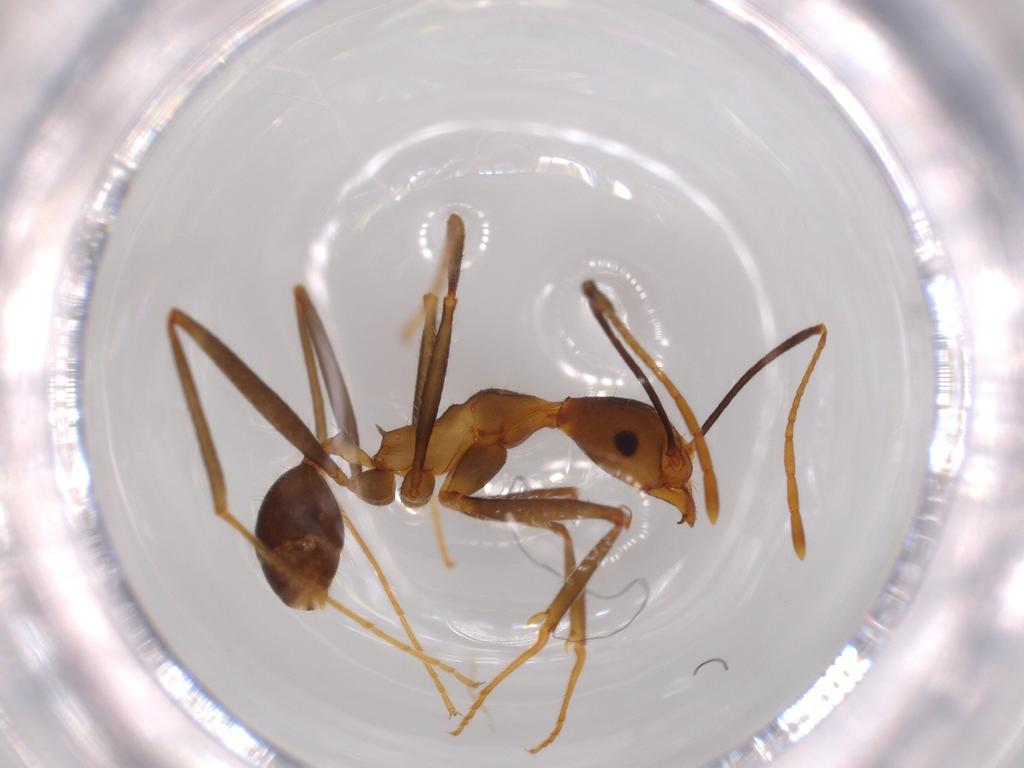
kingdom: Animalia
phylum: Arthropoda
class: Insecta
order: Hymenoptera
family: Formicidae
